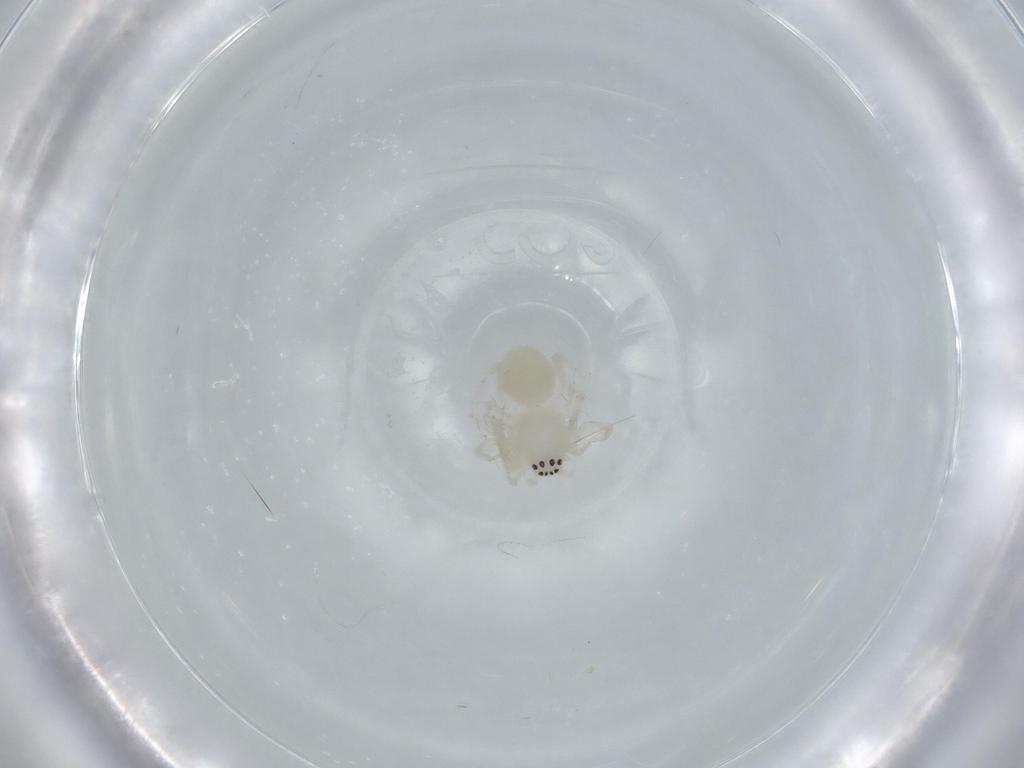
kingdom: Animalia
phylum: Arthropoda
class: Arachnida
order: Araneae
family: Anyphaenidae
